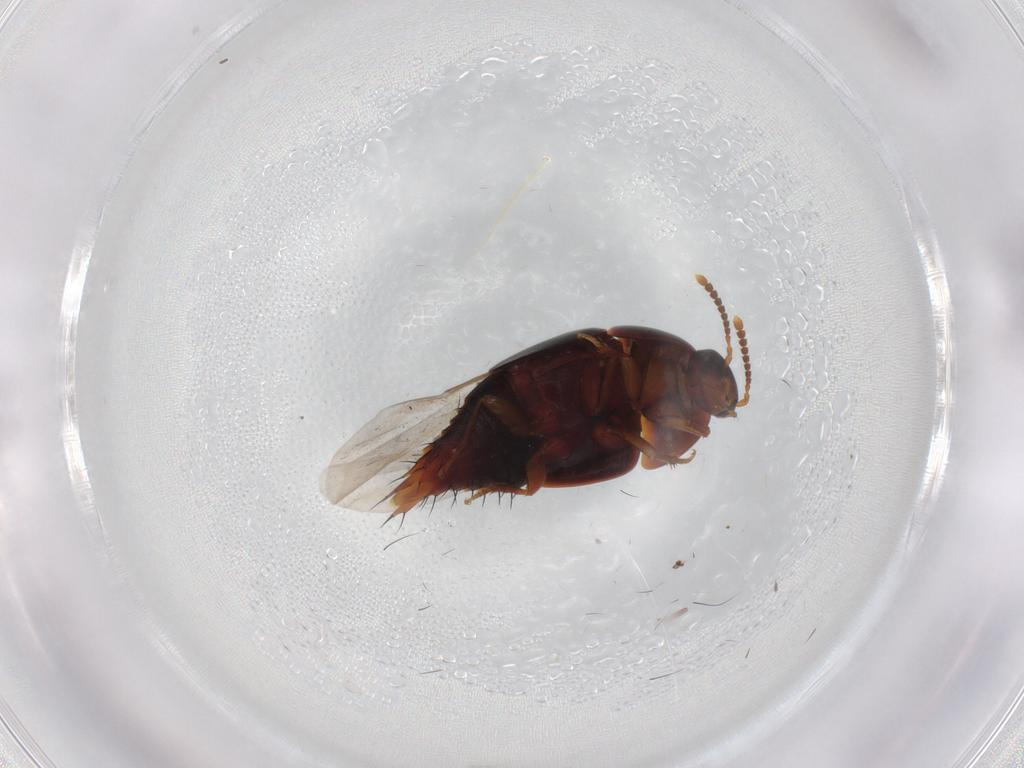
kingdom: Animalia
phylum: Arthropoda
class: Insecta
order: Coleoptera
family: Staphylinidae
